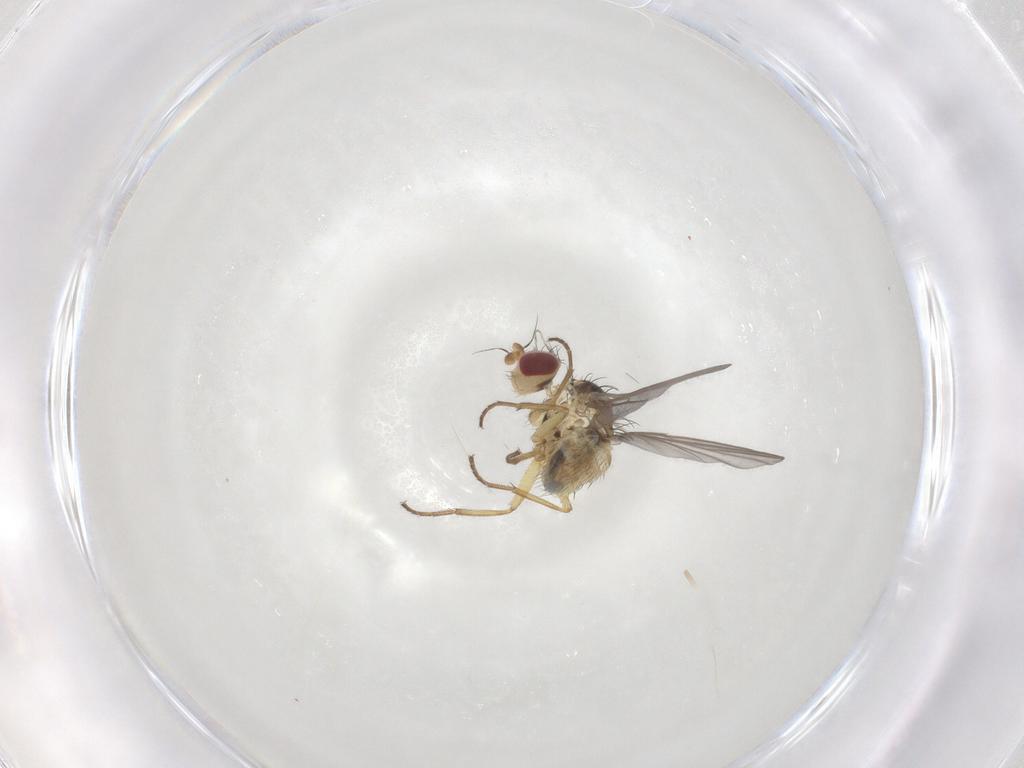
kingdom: Animalia
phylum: Arthropoda
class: Insecta
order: Diptera
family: Agromyzidae
